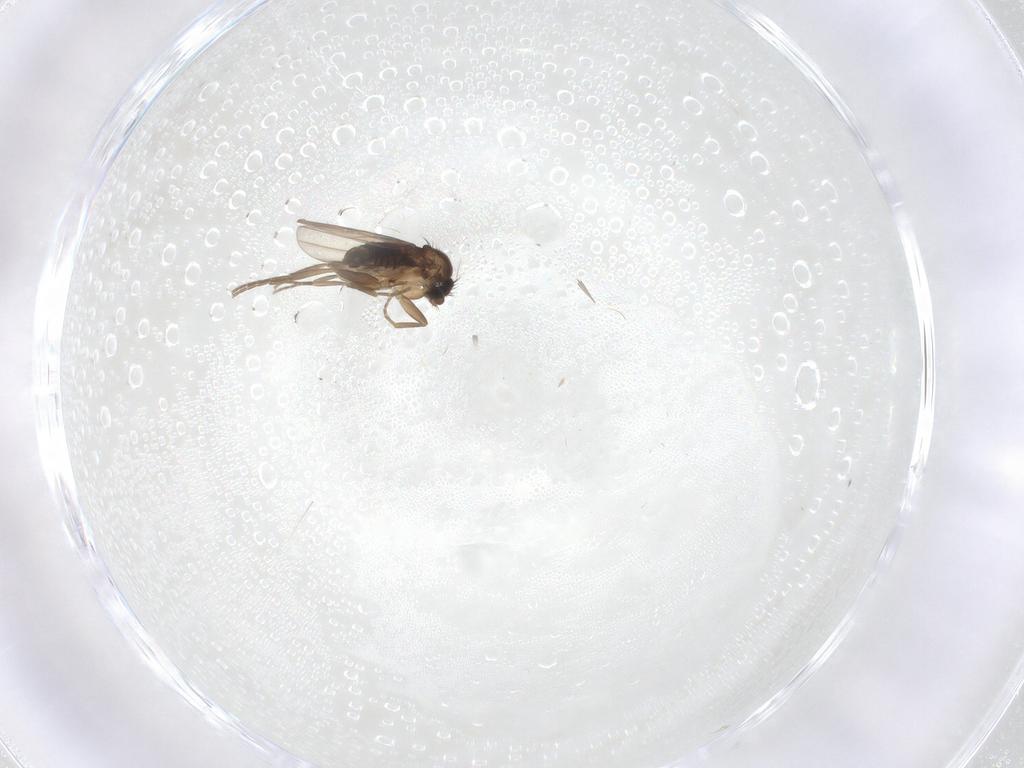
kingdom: Animalia
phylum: Arthropoda
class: Insecta
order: Diptera
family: Phoridae
